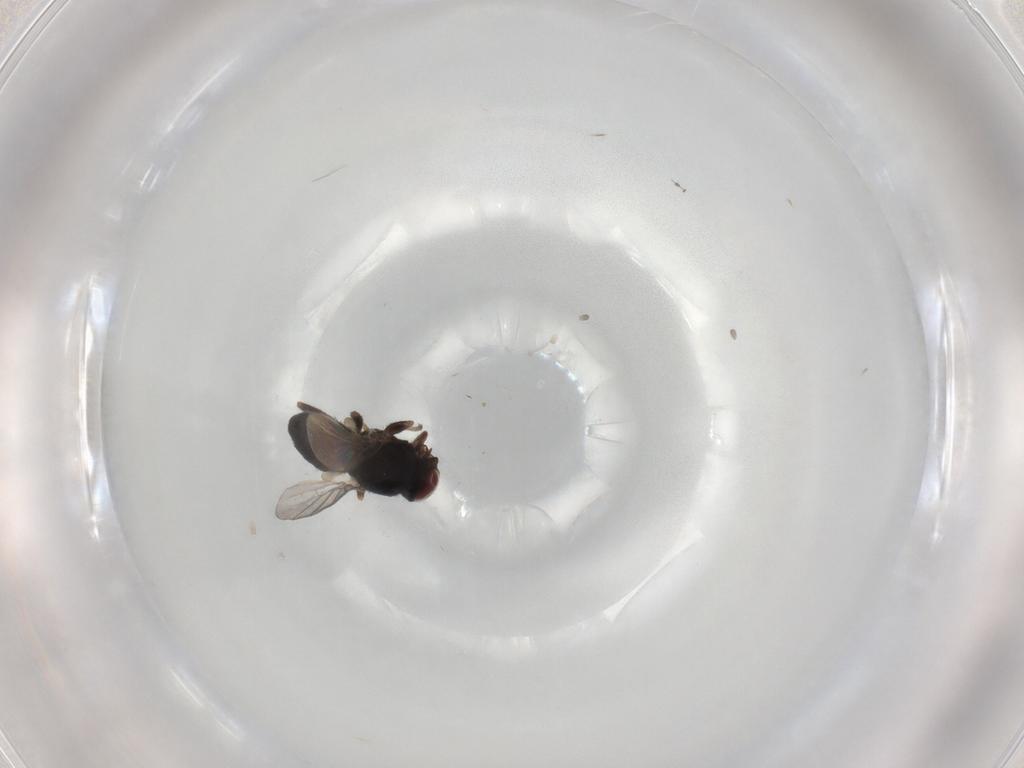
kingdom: Animalia
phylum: Arthropoda
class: Insecta
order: Diptera
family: Cecidomyiidae
